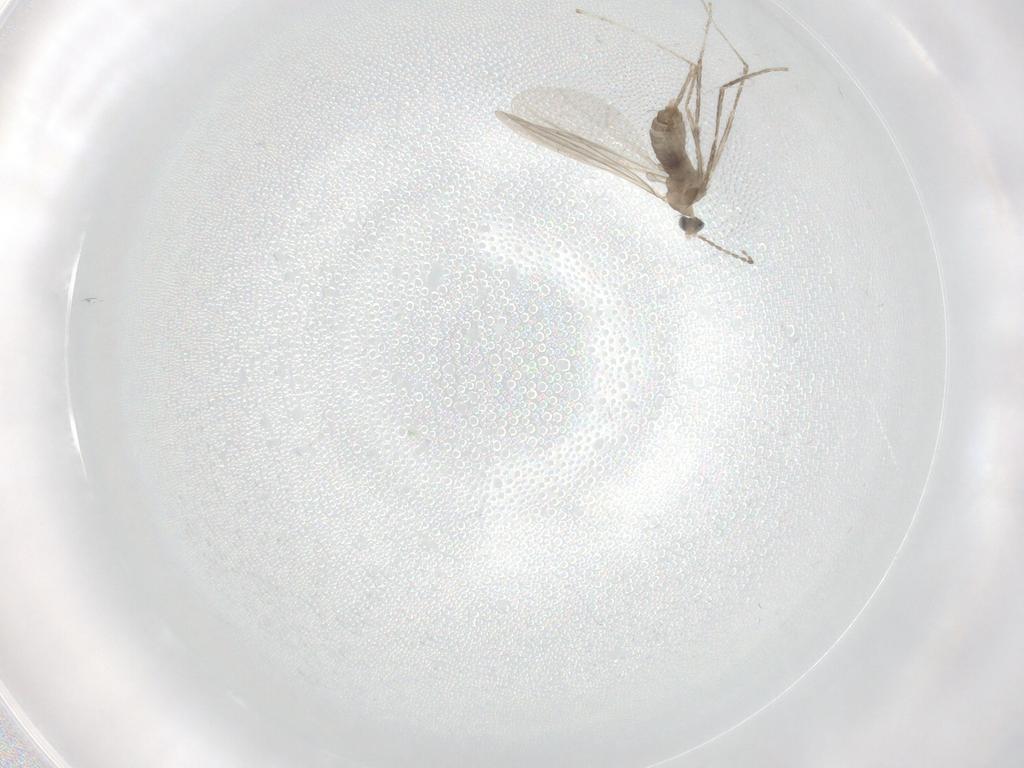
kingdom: Animalia
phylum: Arthropoda
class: Insecta
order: Diptera
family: Cecidomyiidae
